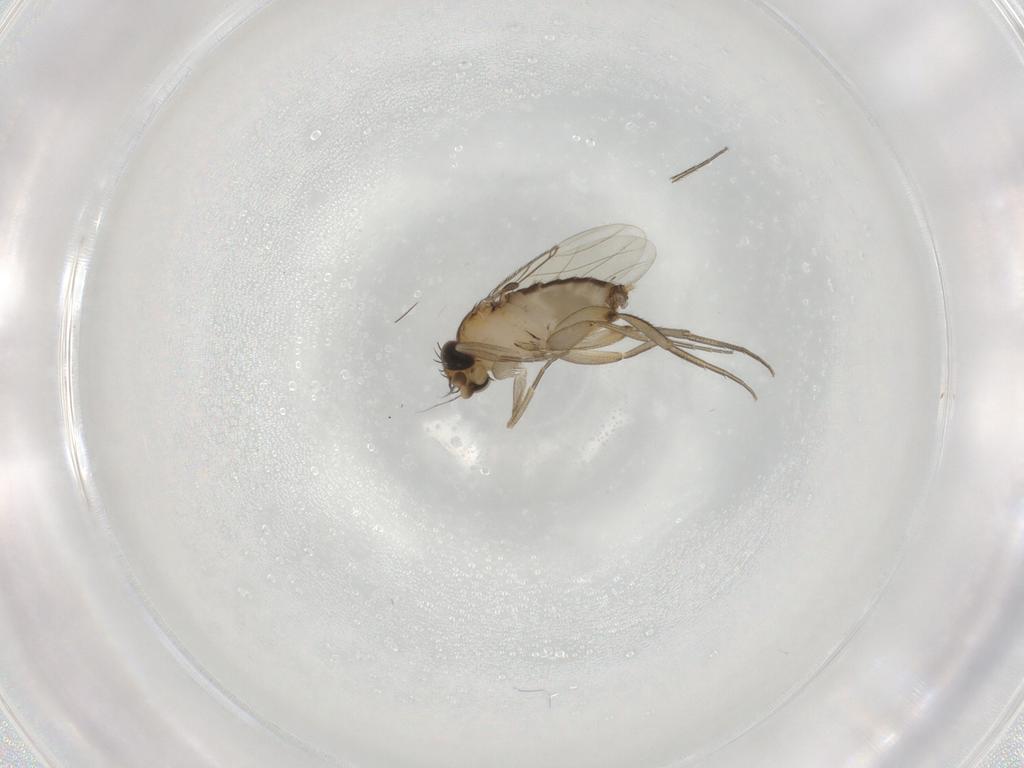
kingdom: Animalia
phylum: Arthropoda
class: Insecta
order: Diptera
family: Phoridae
